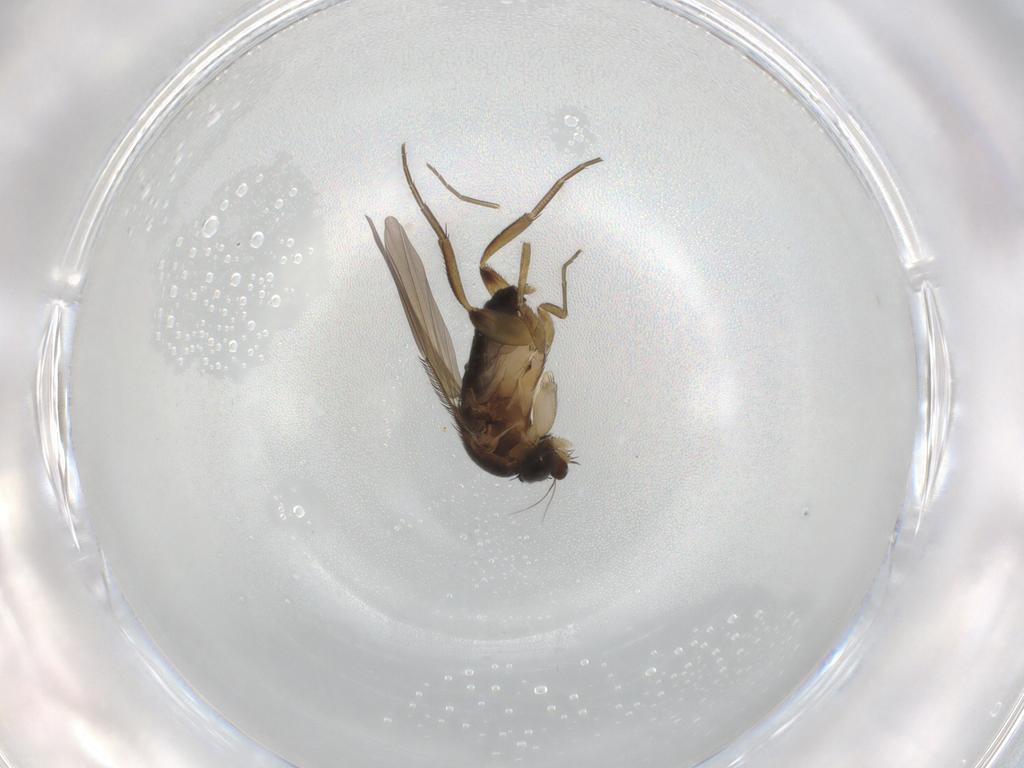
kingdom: Animalia
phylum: Arthropoda
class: Insecta
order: Diptera
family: Phoridae
